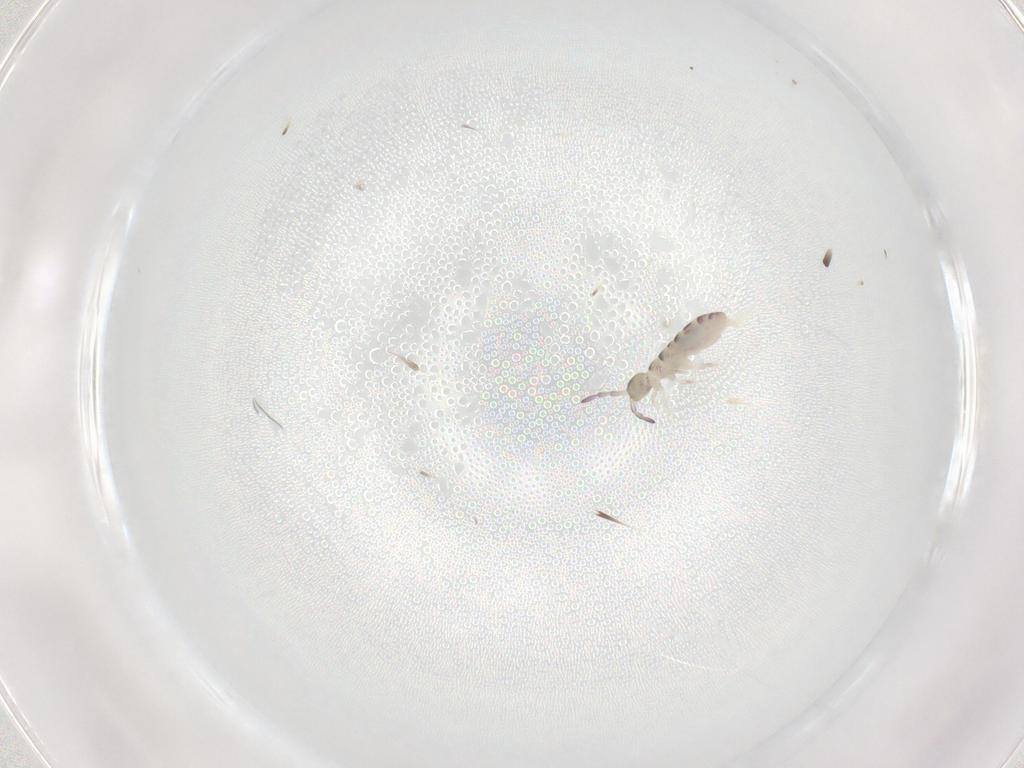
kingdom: Animalia
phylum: Arthropoda
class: Collembola
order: Entomobryomorpha
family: Isotomidae
